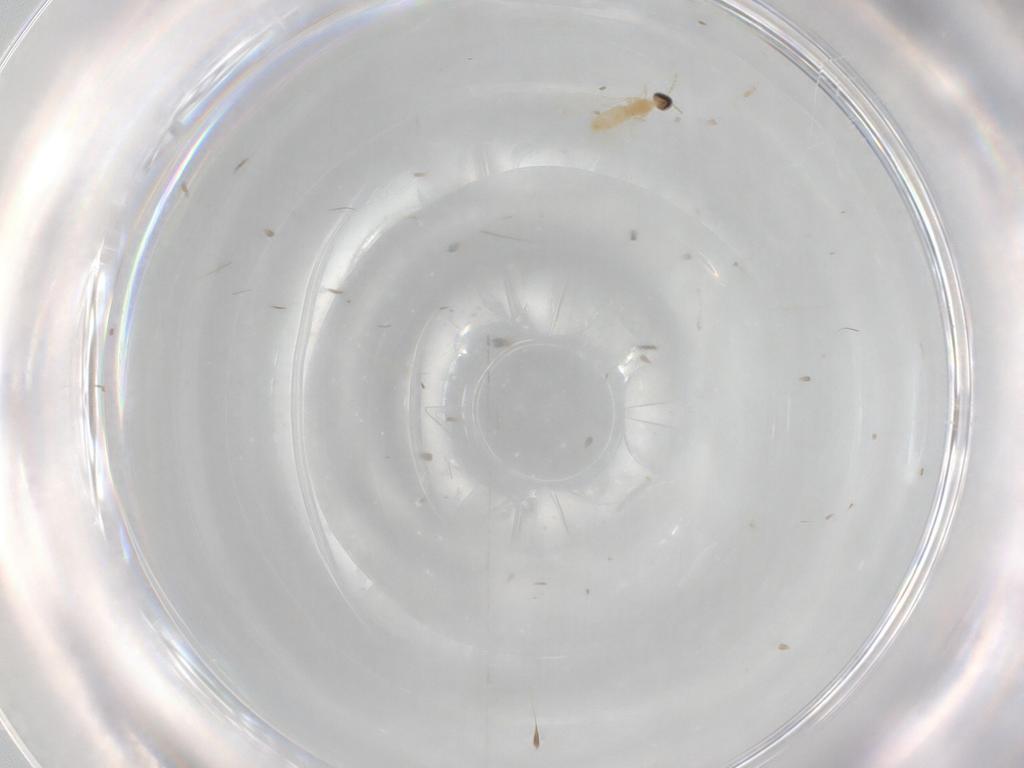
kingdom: Animalia
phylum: Arthropoda
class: Insecta
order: Diptera
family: Cecidomyiidae
